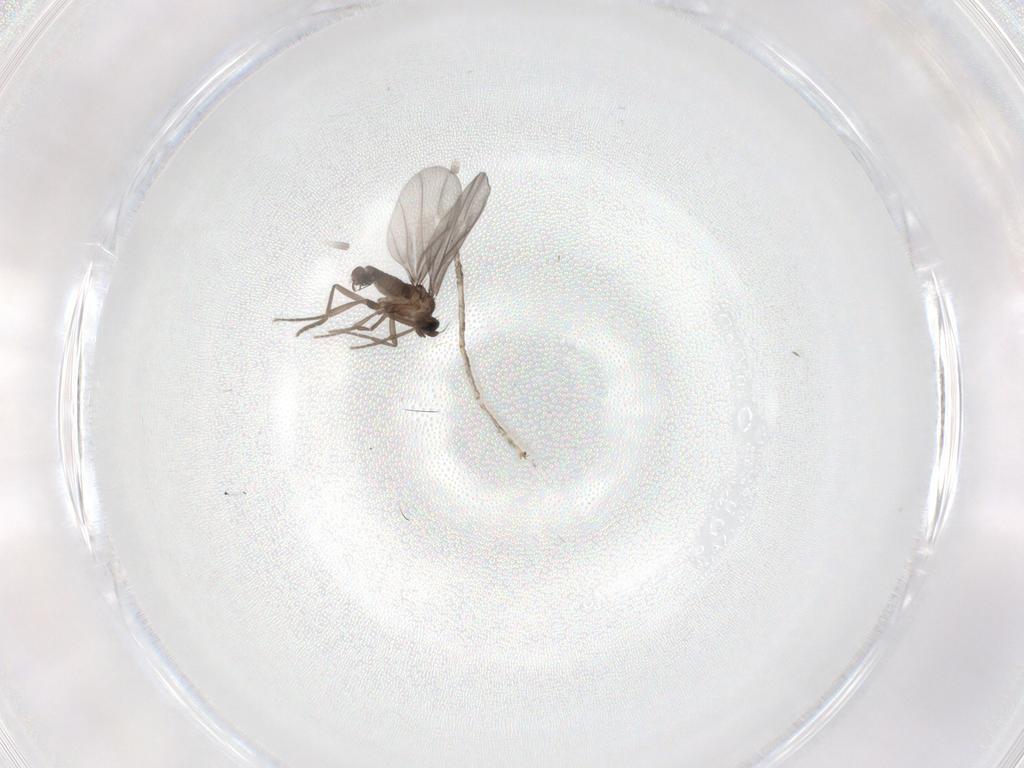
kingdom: Animalia
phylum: Arthropoda
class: Insecta
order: Diptera
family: Phoridae
